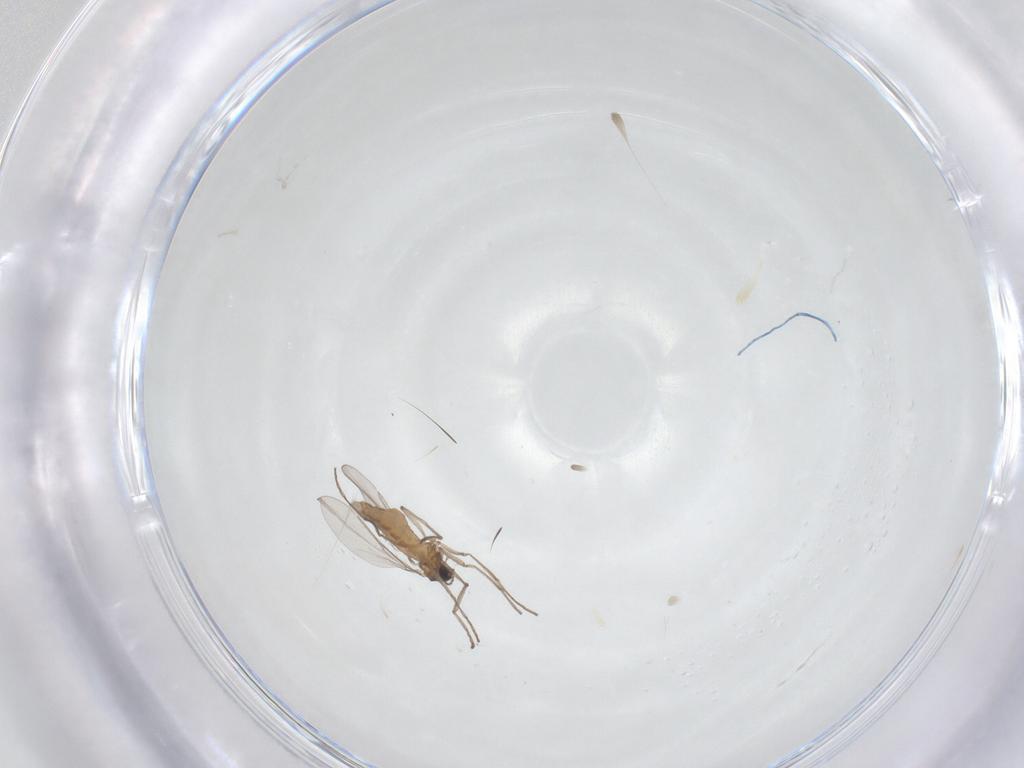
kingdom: Animalia
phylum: Arthropoda
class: Insecta
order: Diptera
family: Cecidomyiidae
